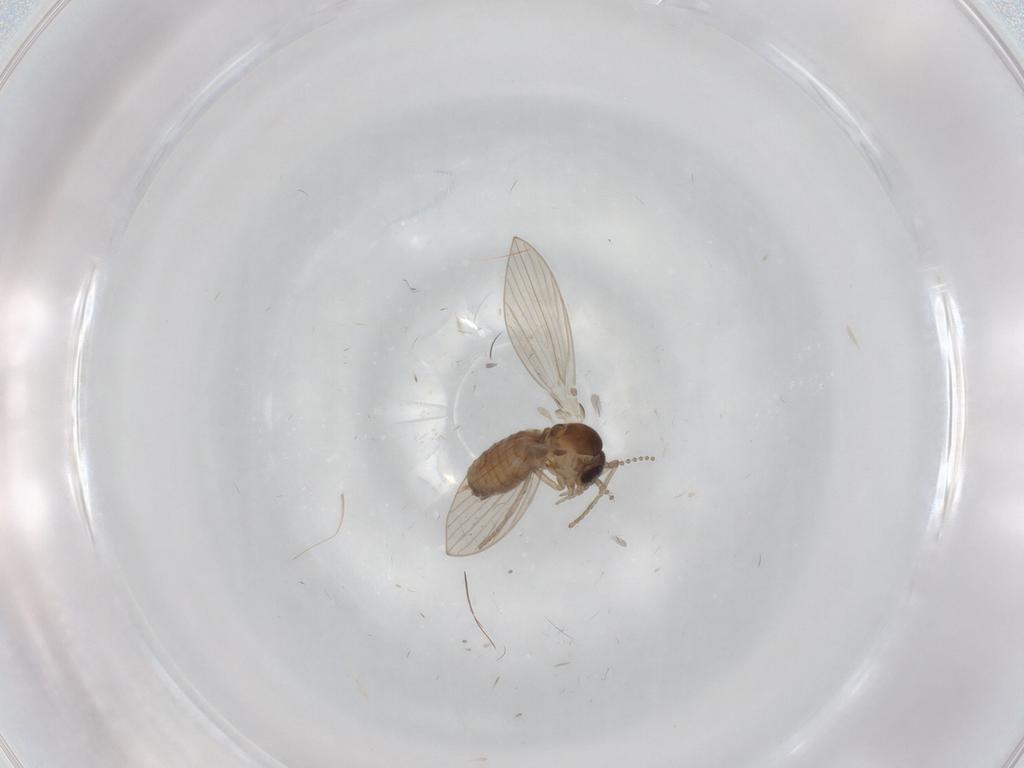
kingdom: Animalia
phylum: Arthropoda
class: Insecta
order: Diptera
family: Psychodidae
